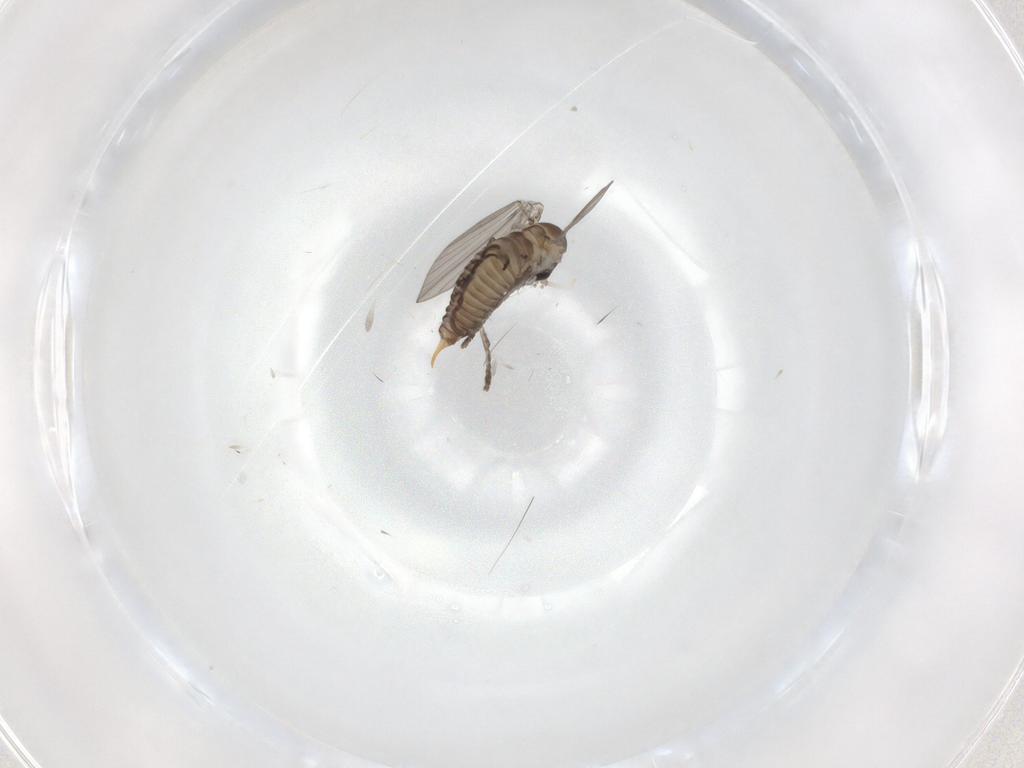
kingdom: Animalia
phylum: Arthropoda
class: Insecta
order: Diptera
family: Psychodidae
